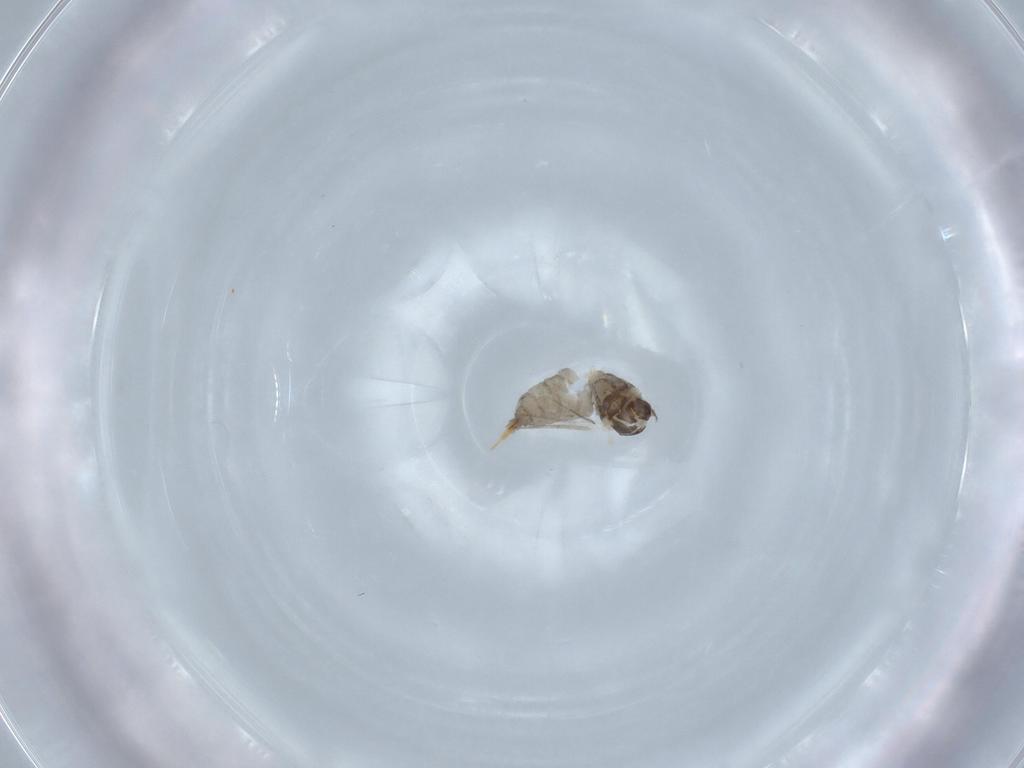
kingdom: Animalia
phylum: Arthropoda
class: Insecta
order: Diptera
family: Cecidomyiidae
